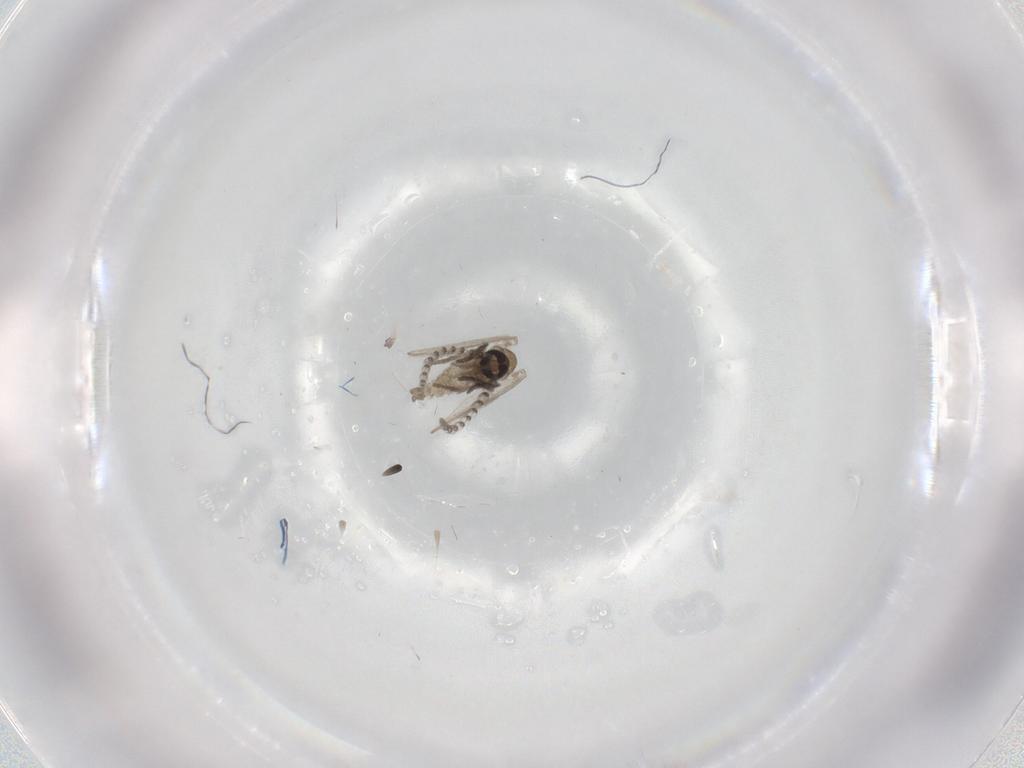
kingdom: Animalia
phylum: Arthropoda
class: Insecta
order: Diptera
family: Psychodidae
